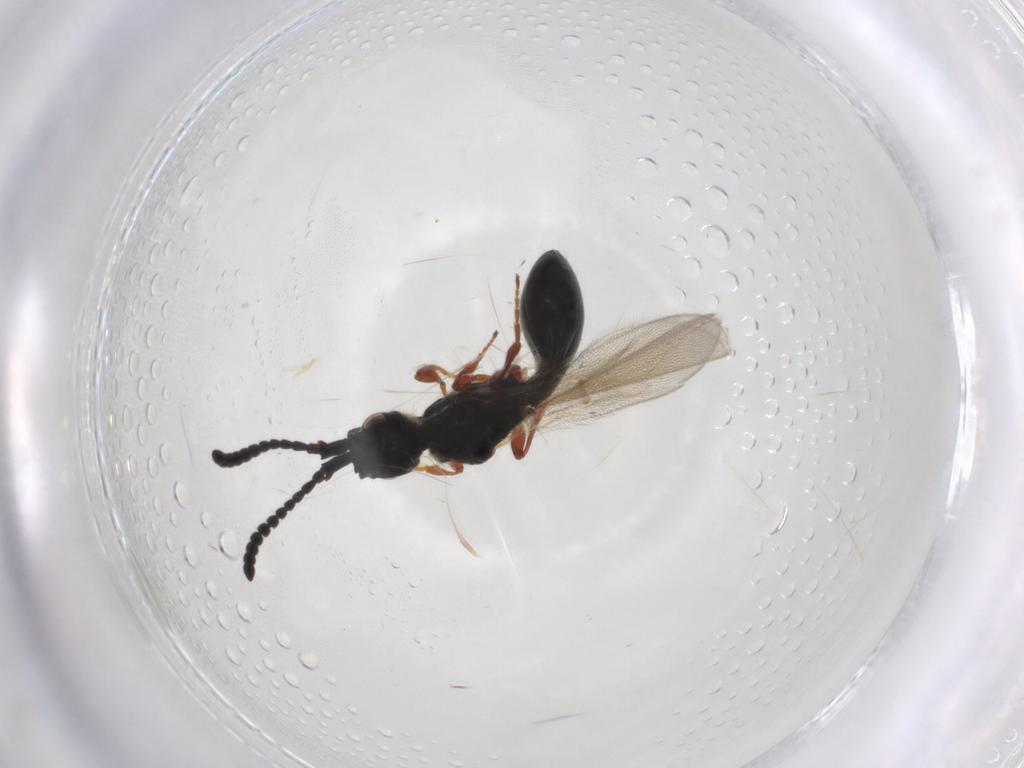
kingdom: Animalia
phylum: Arthropoda
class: Insecta
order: Hymenoptera
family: Diapriidae
